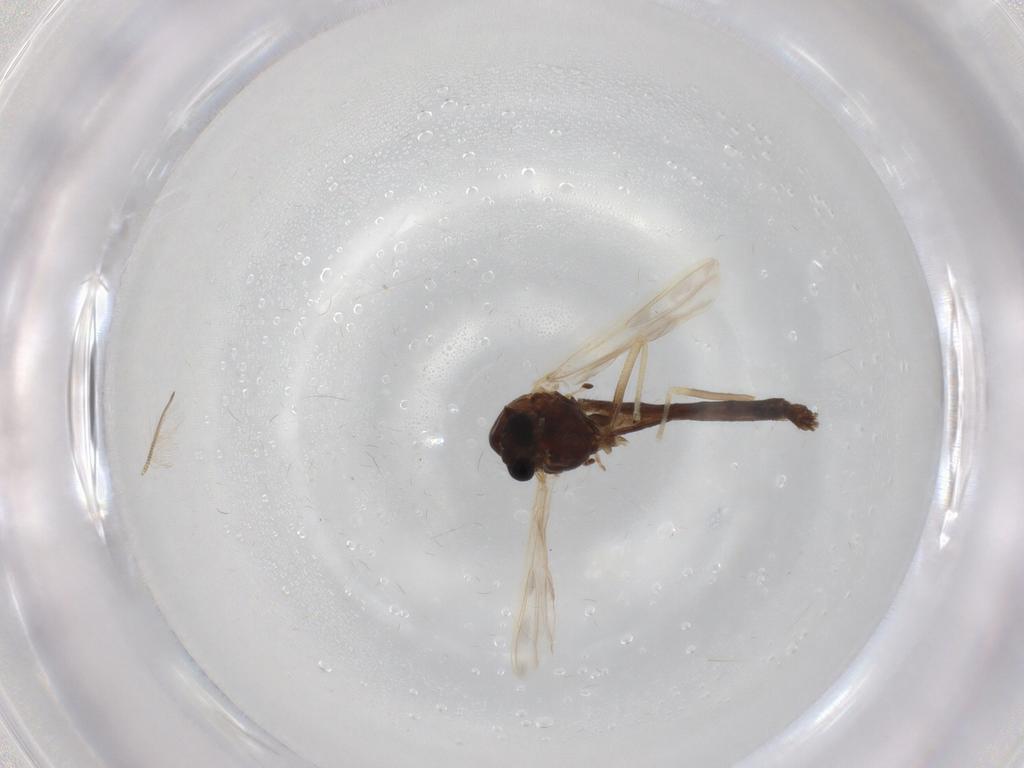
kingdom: Animalia
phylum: Arthropoda
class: Insecta
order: Diptera
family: Chironomidae
